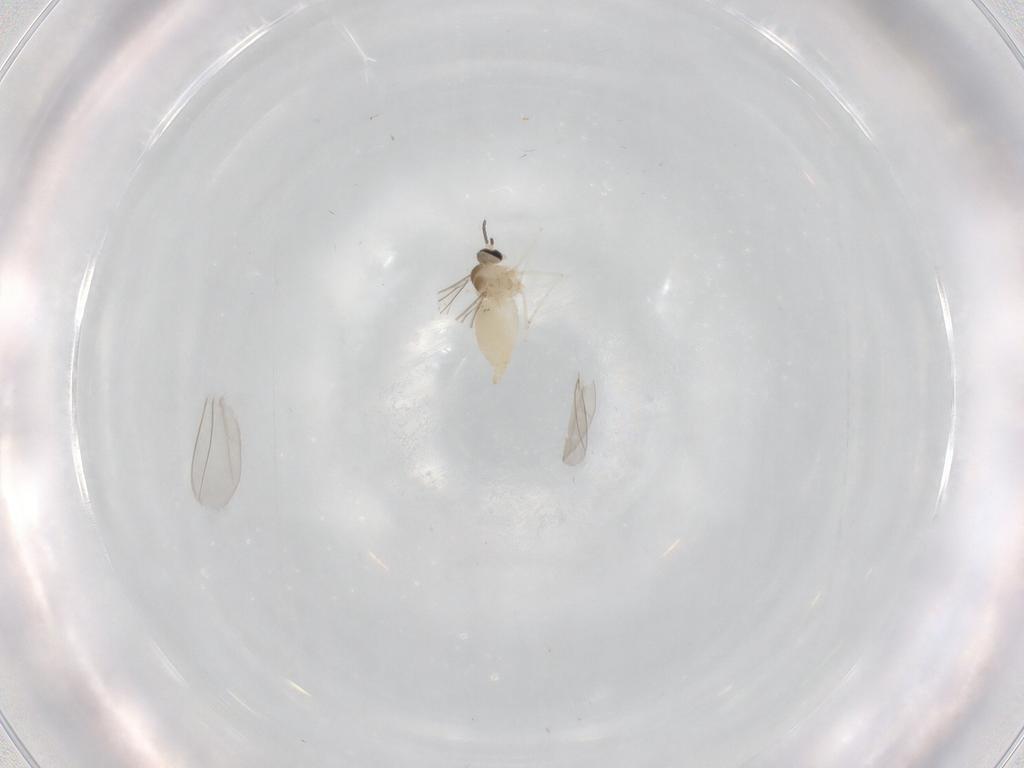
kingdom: Animalia
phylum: Arthropoda
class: Insecta
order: Diptera
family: Cecidomyiidae
